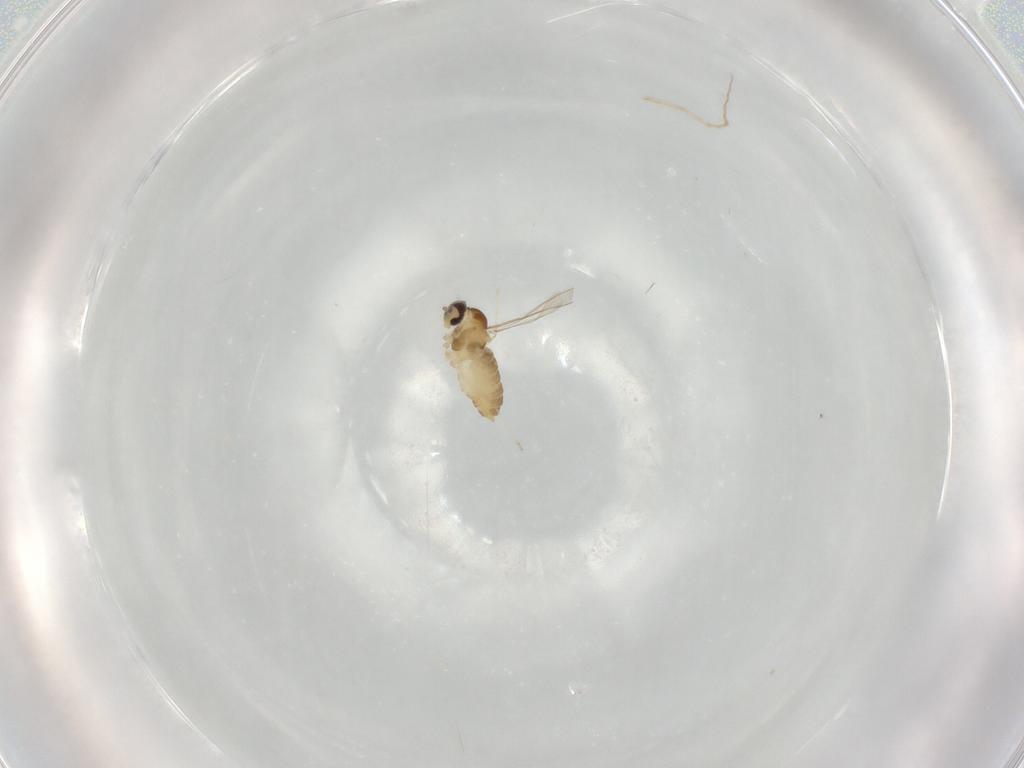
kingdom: Animalia
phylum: Arthropoda
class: Insecta
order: Diptera
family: Cecidomyiidae
